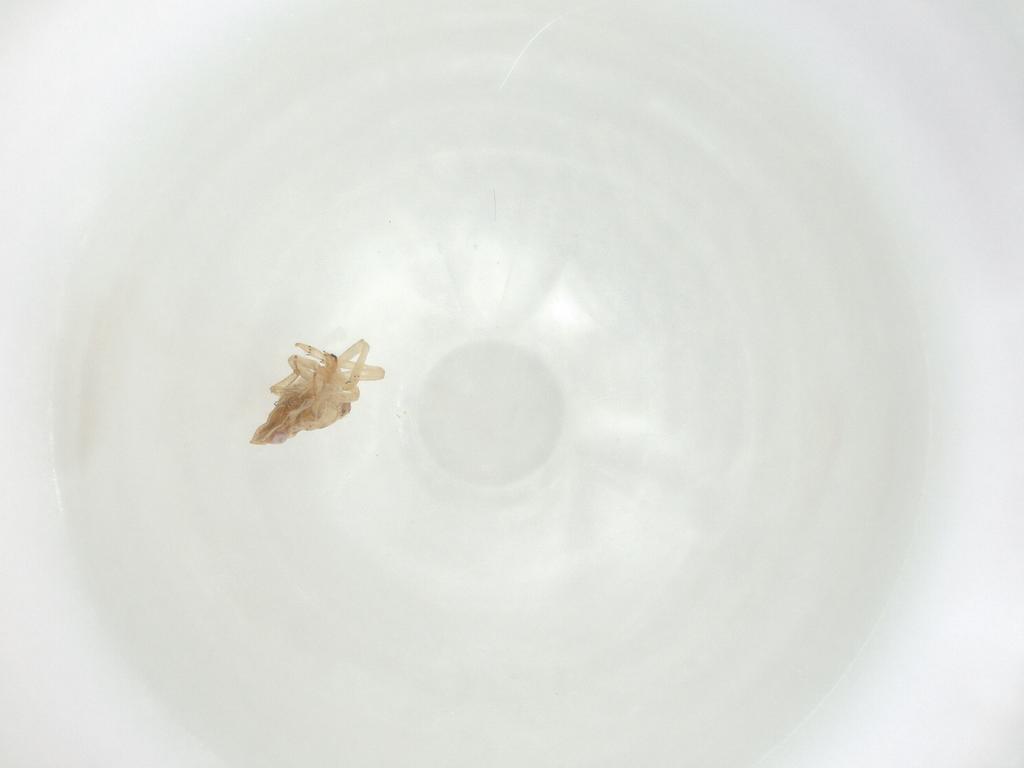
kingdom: Animalia
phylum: Arthropoda
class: Insecta
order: Hemiptera
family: Tropiduchidae
